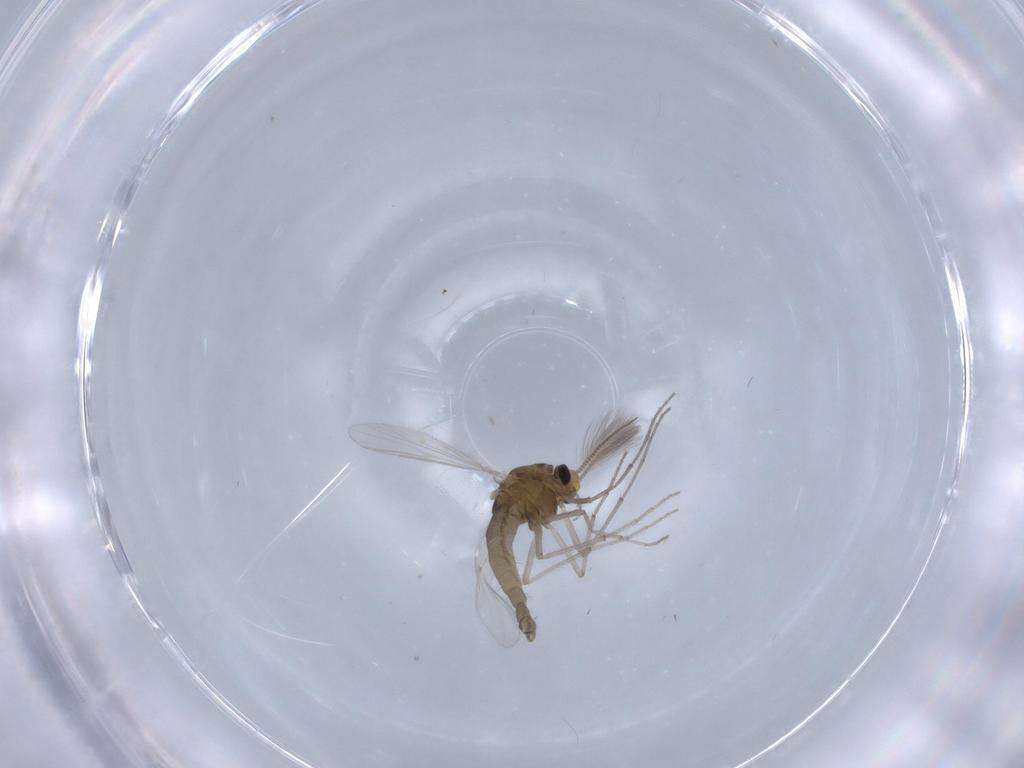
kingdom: Animalia
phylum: Arthropoda
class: Insecta
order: Diptera
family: Chironomidae
